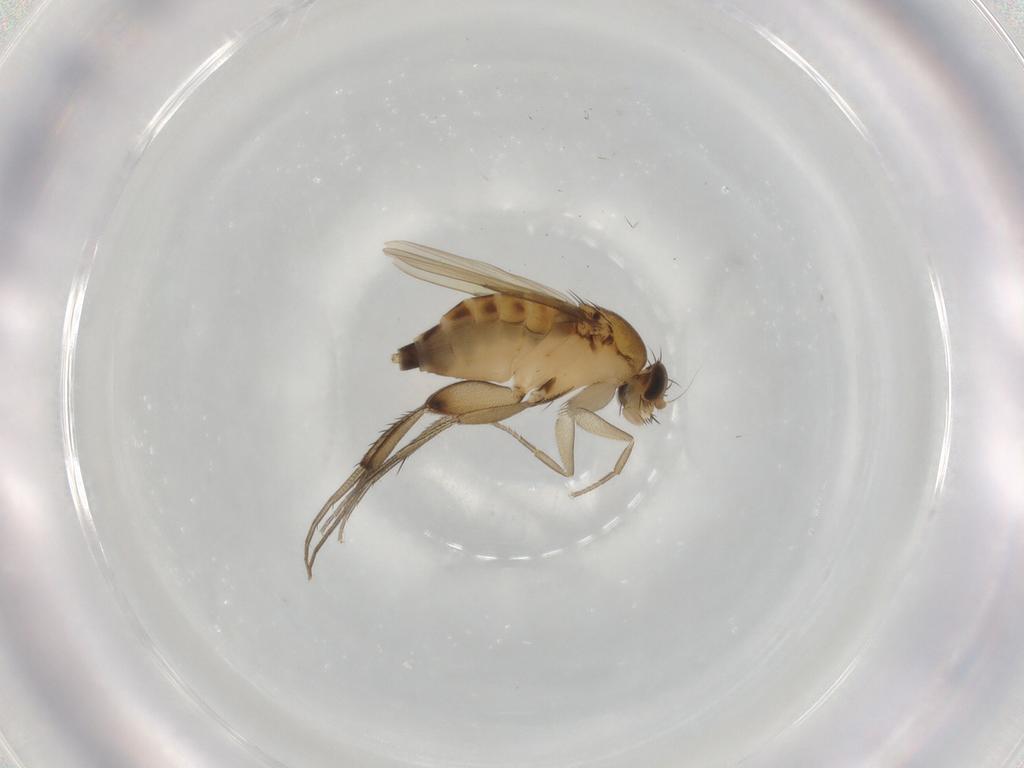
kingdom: Animalia
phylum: Arthropoda
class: Insecta
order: Diptera
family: Phoridae
